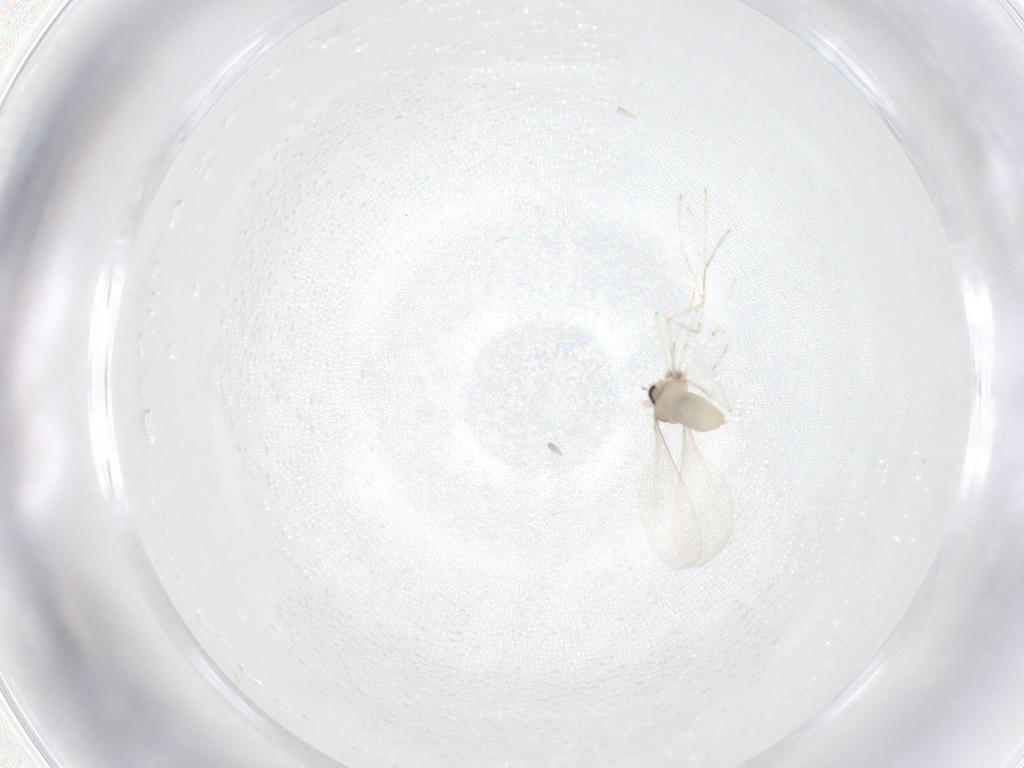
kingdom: Animalia
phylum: Arthropoda
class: Insecta
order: Diptera
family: Cecidomyiidae
